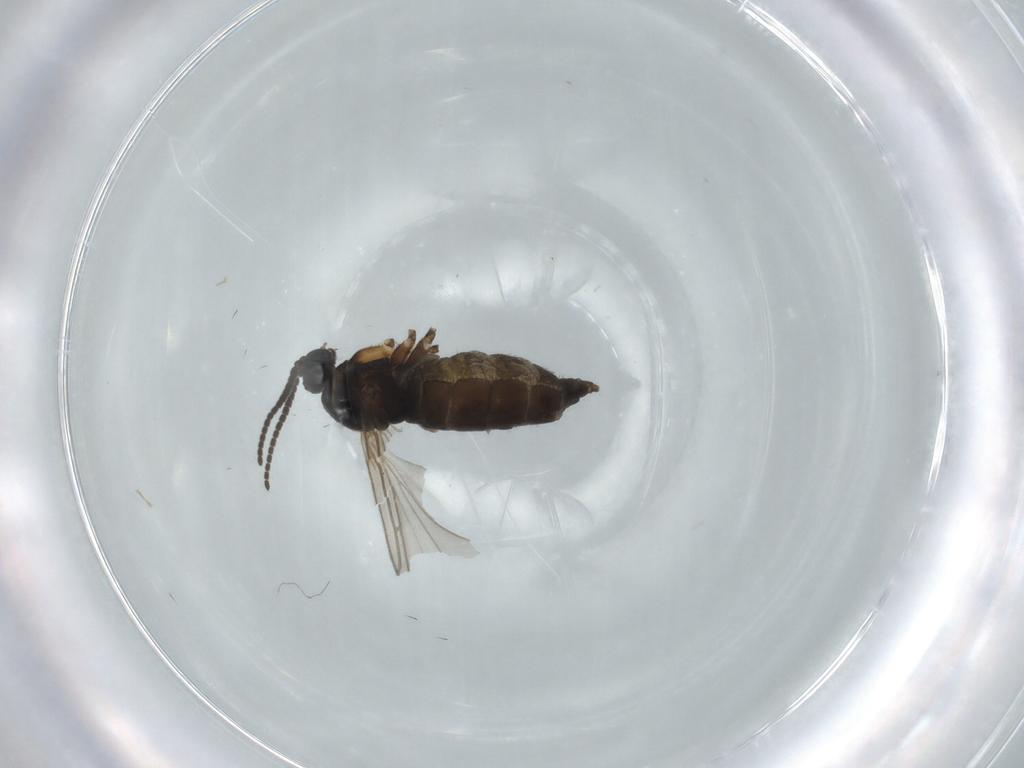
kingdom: Animalia
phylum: Arthropoda
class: Insecta
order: Diptera
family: Sciaridae
